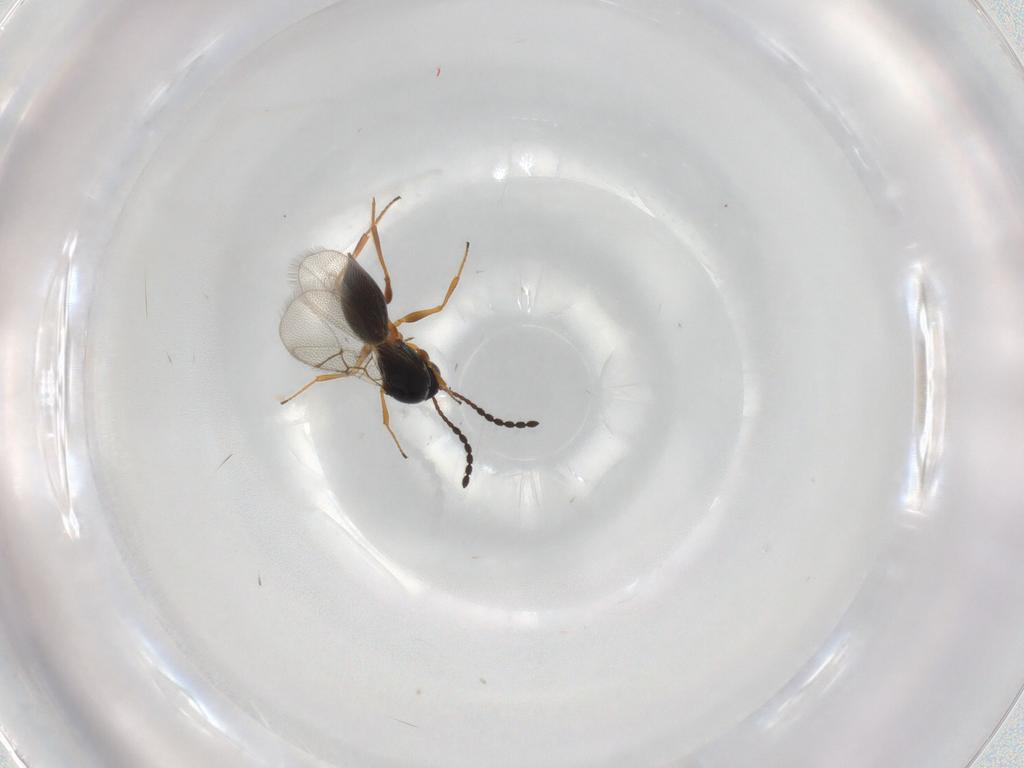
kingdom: Animalia
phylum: Arthropoda
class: Insecta
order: Hymenoptera
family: Figitidae
